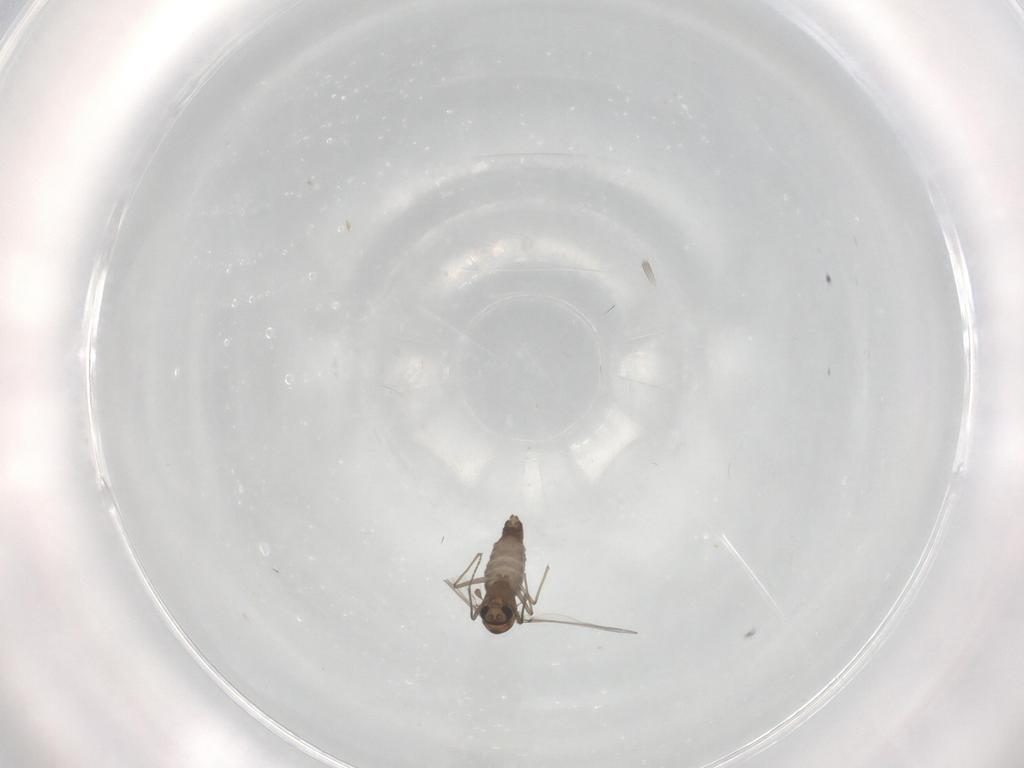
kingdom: Animalia
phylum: Arthropoda
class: Insecta
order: Diptera
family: Chironomidae
